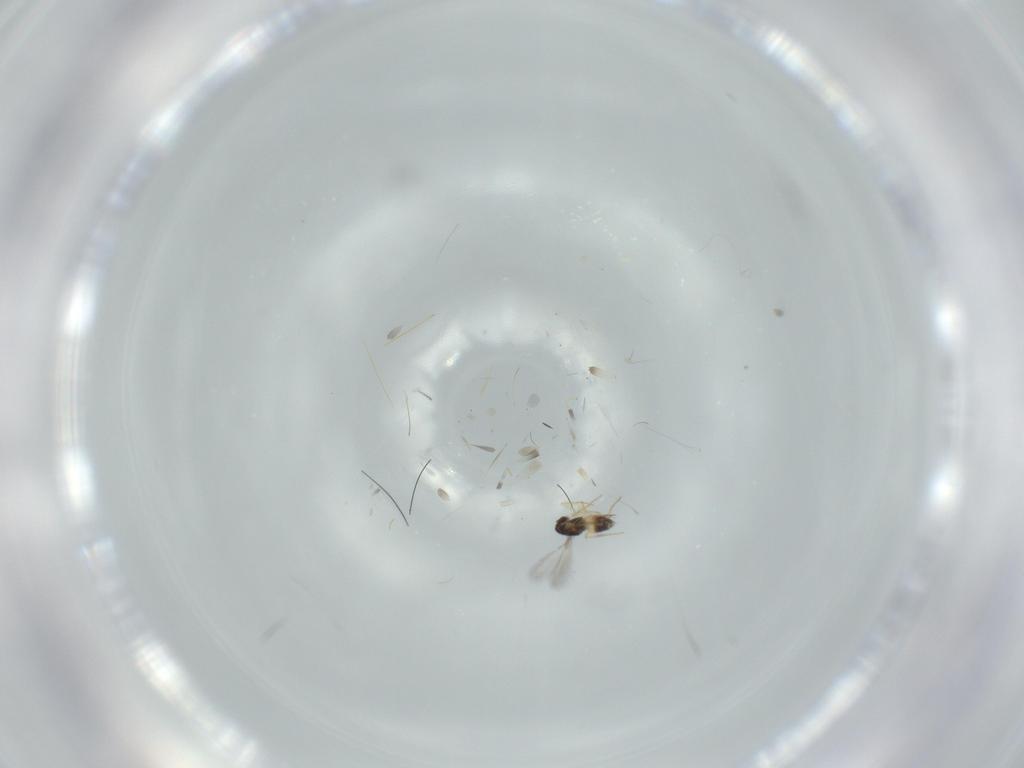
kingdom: Animalia
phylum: Arthropoda
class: Insecta
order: Hymenoptera
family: Mymaridae
